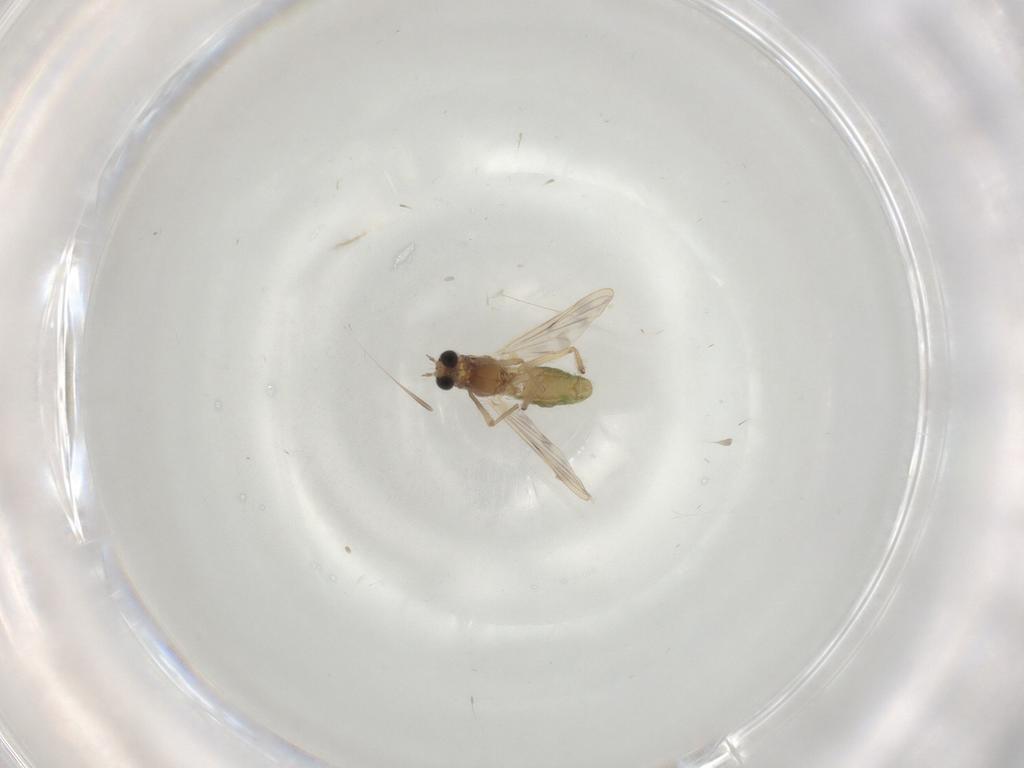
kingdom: Animalia
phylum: Arthropoda
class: Insecta
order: Diptera
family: Chironomidae
